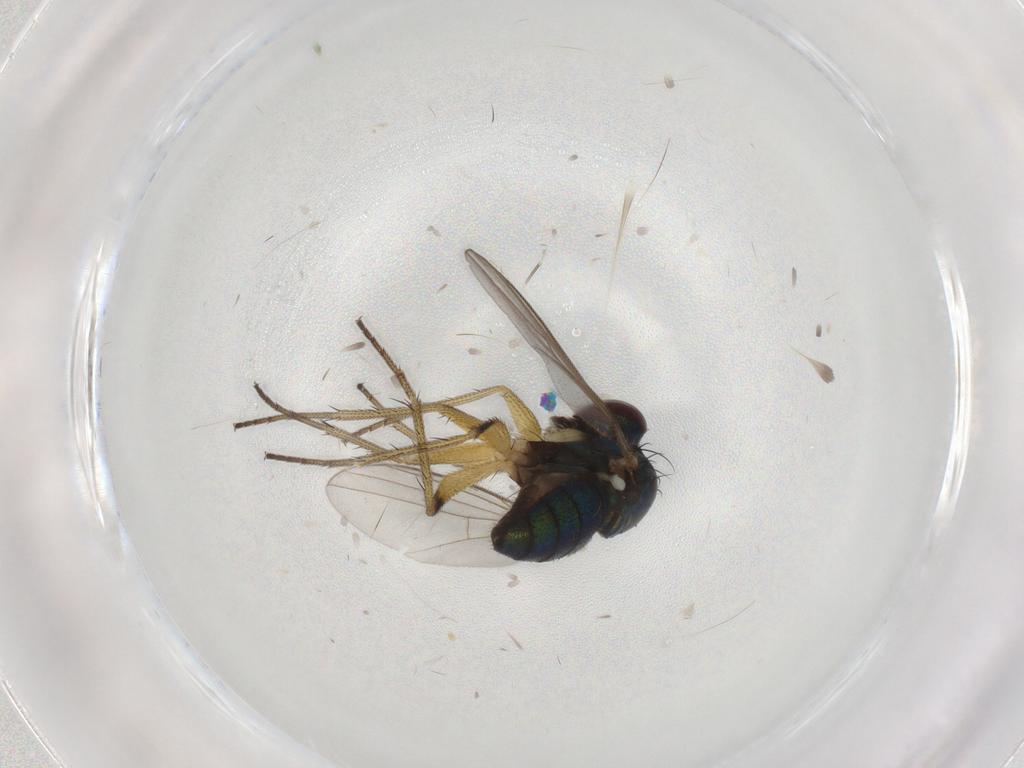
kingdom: Animalia
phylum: Arthropoda
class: Insecta
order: Diptera
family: Dolichopodidae
